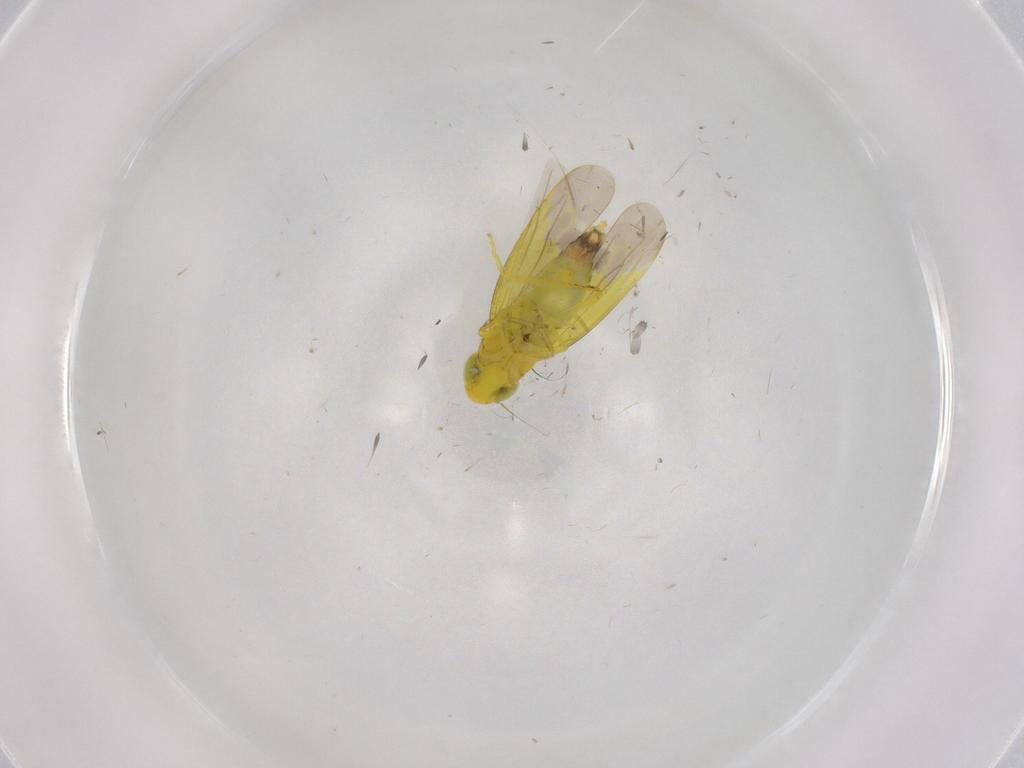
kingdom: Animalia
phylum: Arthropoda
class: Insecta
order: Hemiptera
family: Cicadellidae
